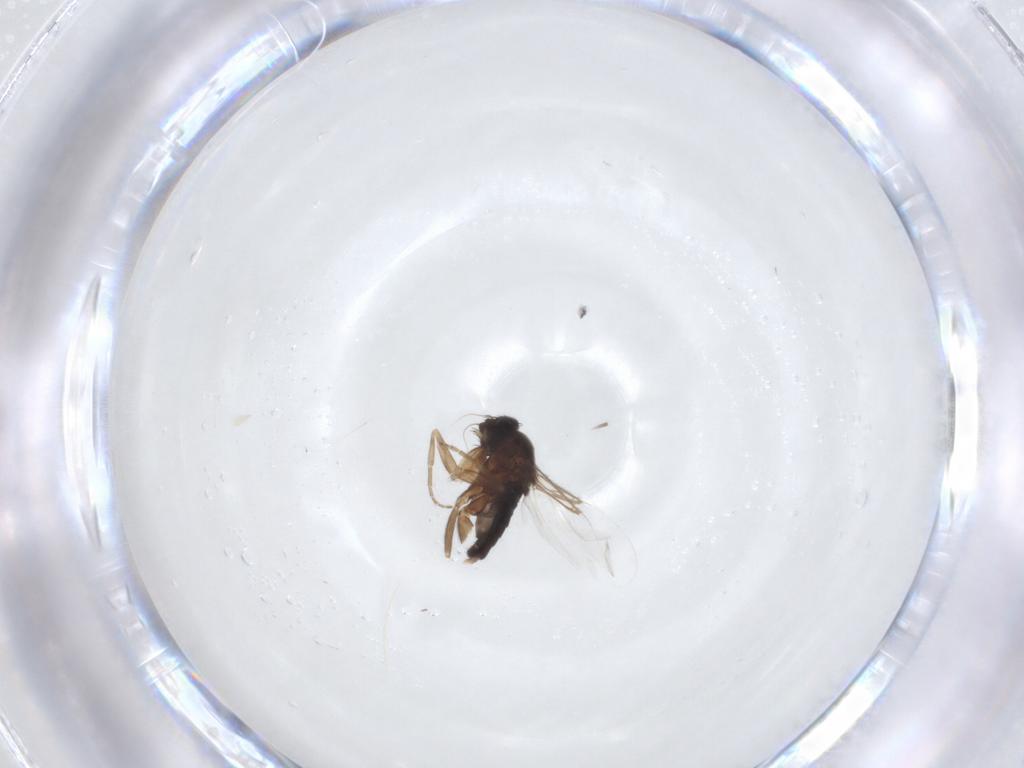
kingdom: Animalia
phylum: Arthropoda
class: Insecta
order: Diptera
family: Phoridae
